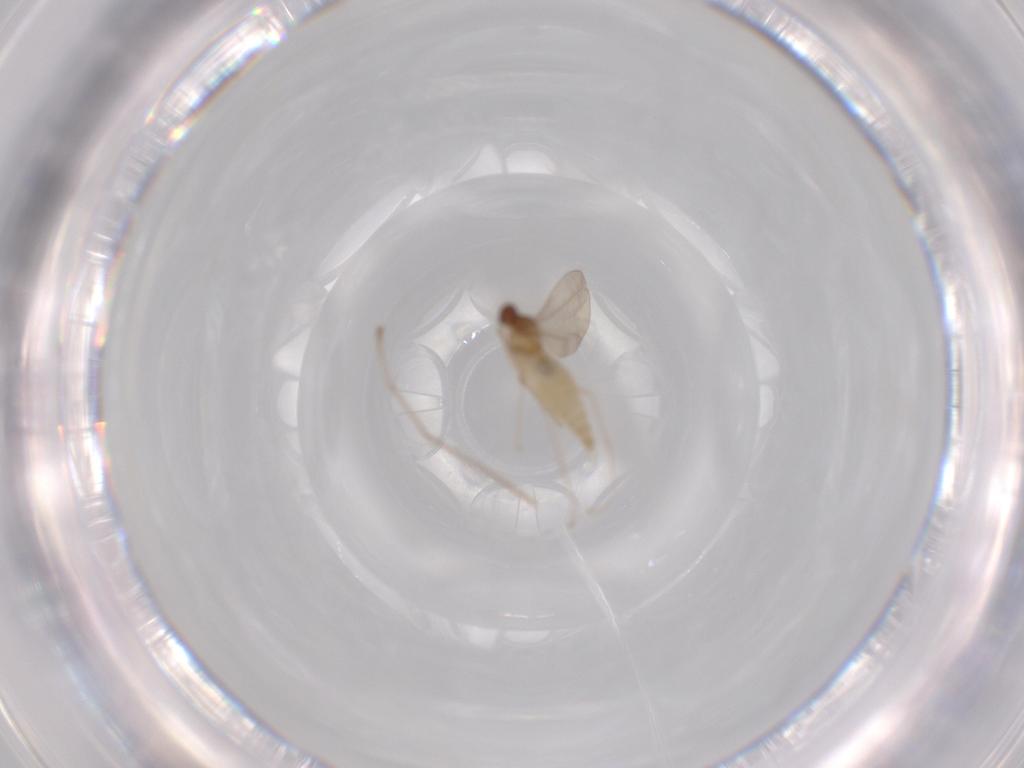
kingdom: Animalia
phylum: Arthropoda
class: Insecta
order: Diptera
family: Cecidomyiidae
